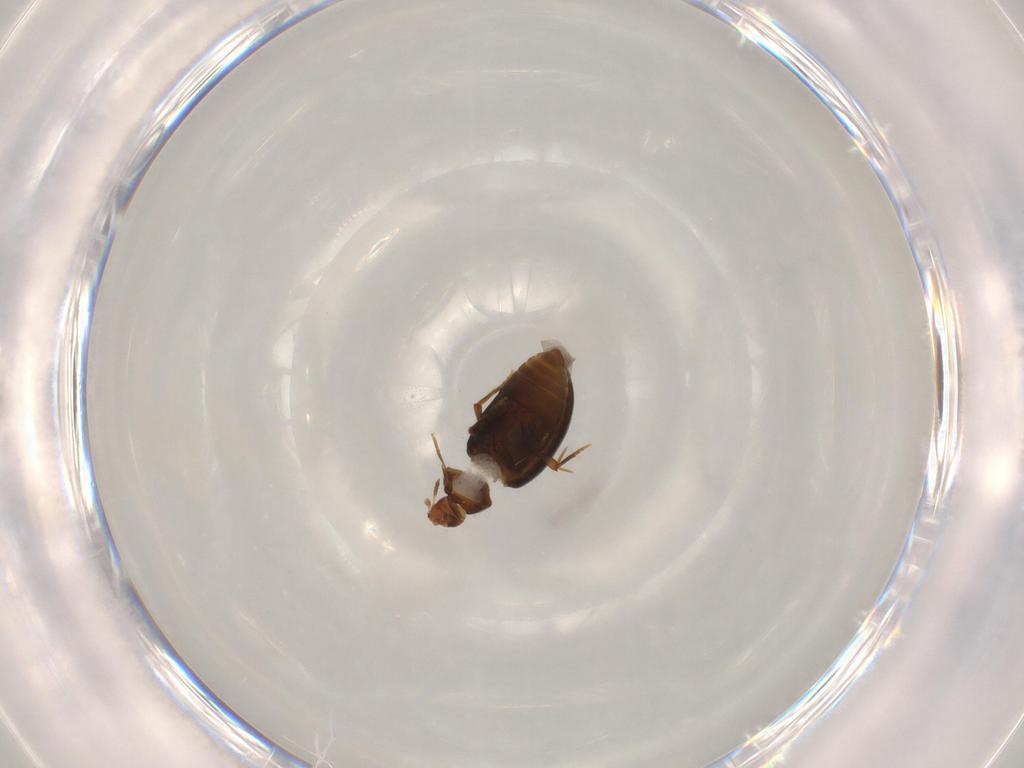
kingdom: Animalia
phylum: Arthropoda
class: Insecta
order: Coleoptera
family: Melandryidae
